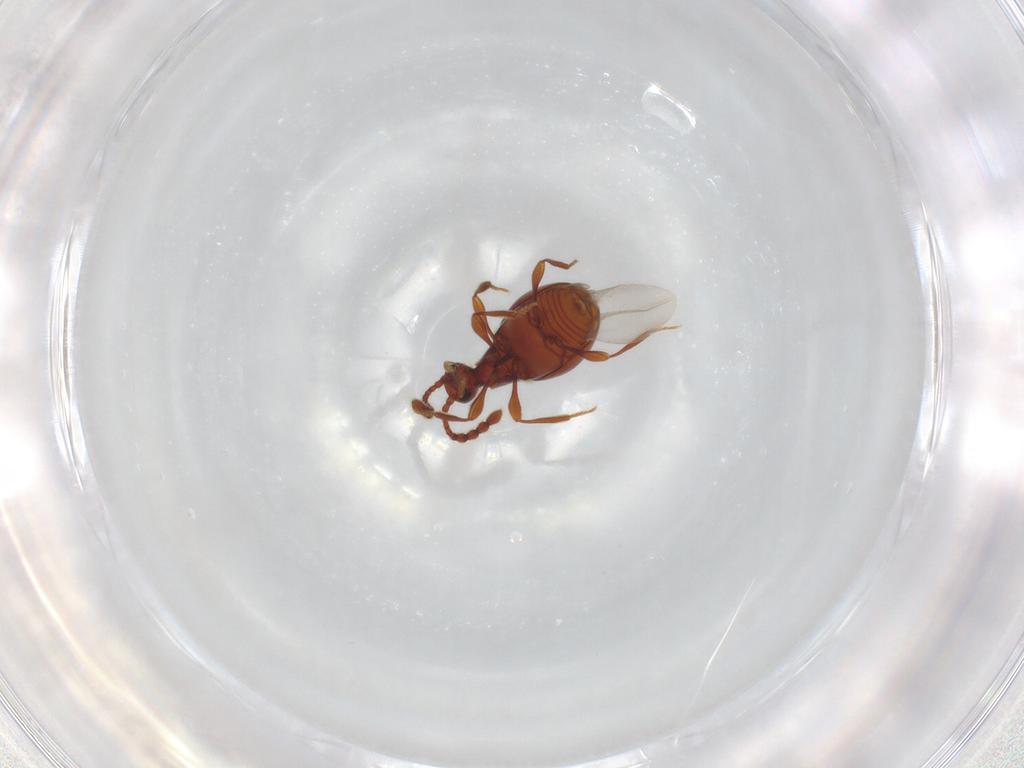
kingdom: Animalia
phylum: Arthropoda
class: Insecta
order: Coleoptera
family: Staphylinidae
